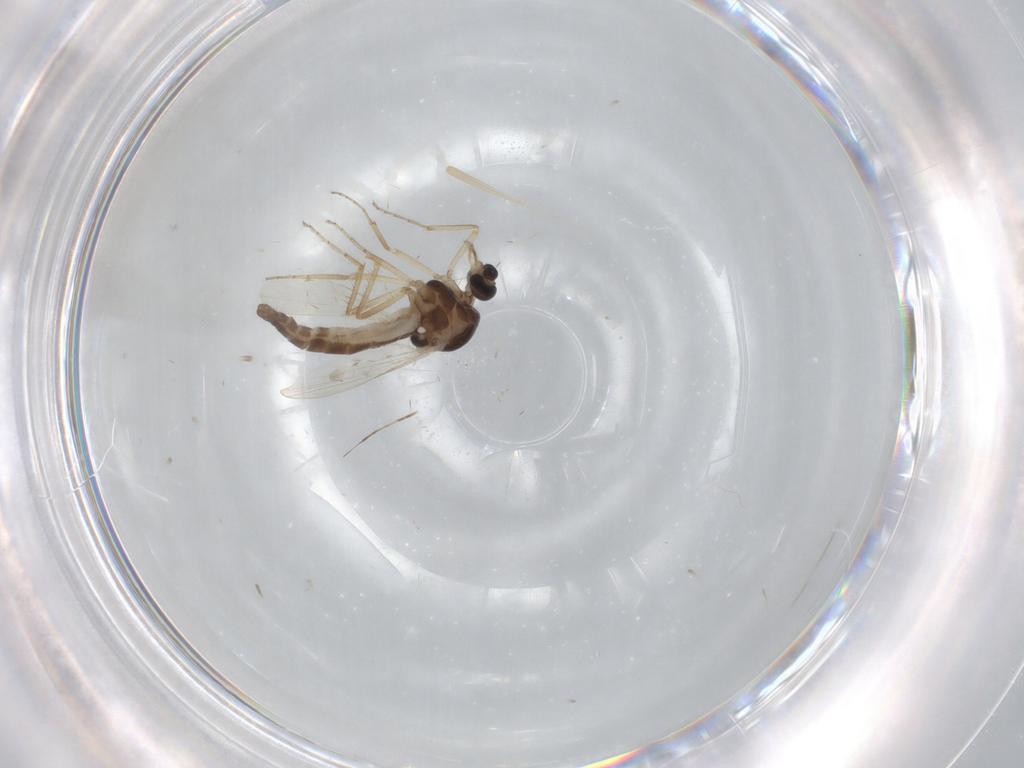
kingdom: Animalia
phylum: Arthropoda
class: Insecta
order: Diptera
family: Ceratopogonidae
